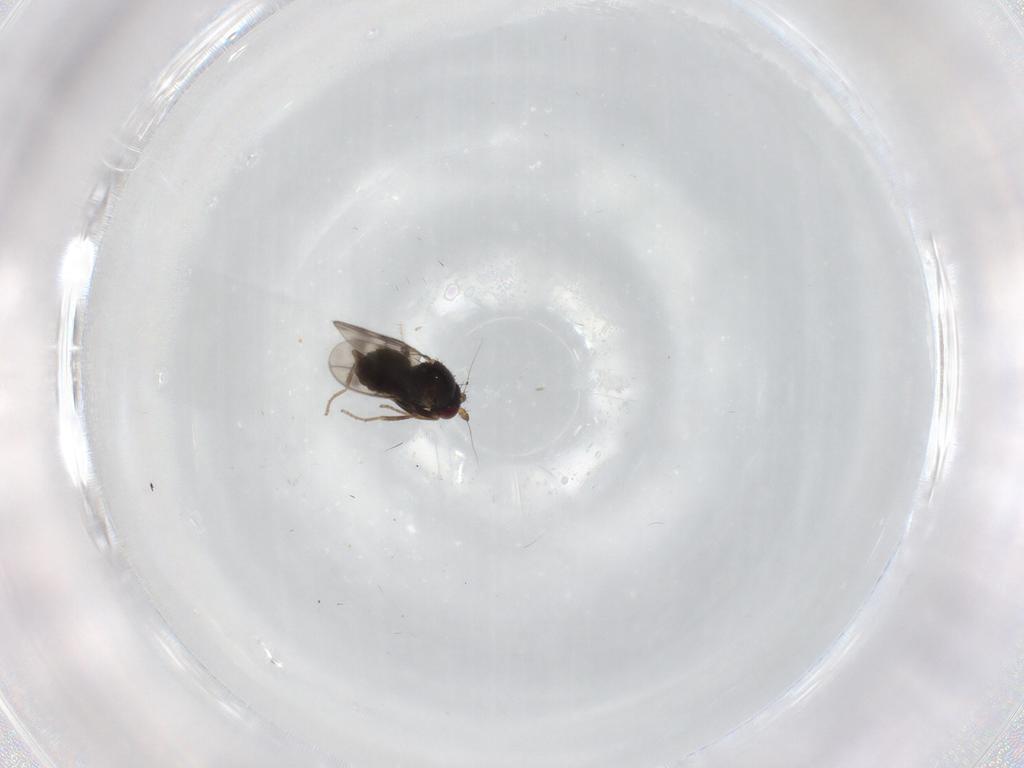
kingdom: Animalia
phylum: Arthropoda
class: Insecta
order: Diptera
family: Sphaeroceridae
